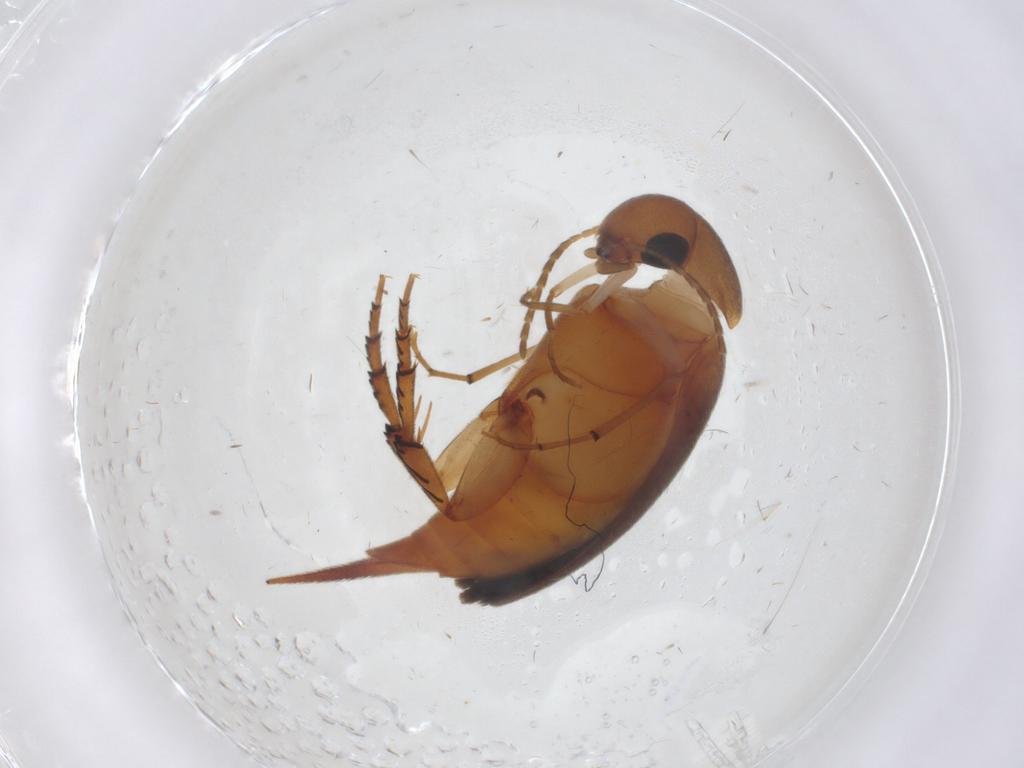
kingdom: Animalia
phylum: Arthropoda
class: Insecta
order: Coleoptera
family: Mordellidae
